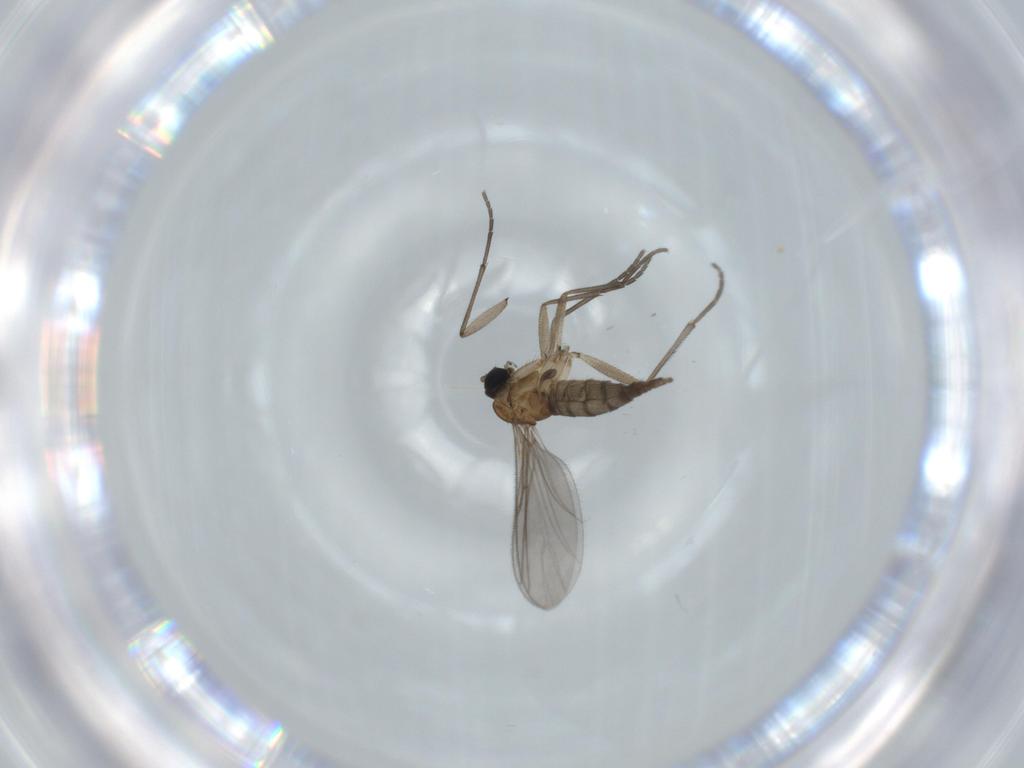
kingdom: Animalia
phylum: Arthropoda
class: Insecta
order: Diptera
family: Sciaridae
